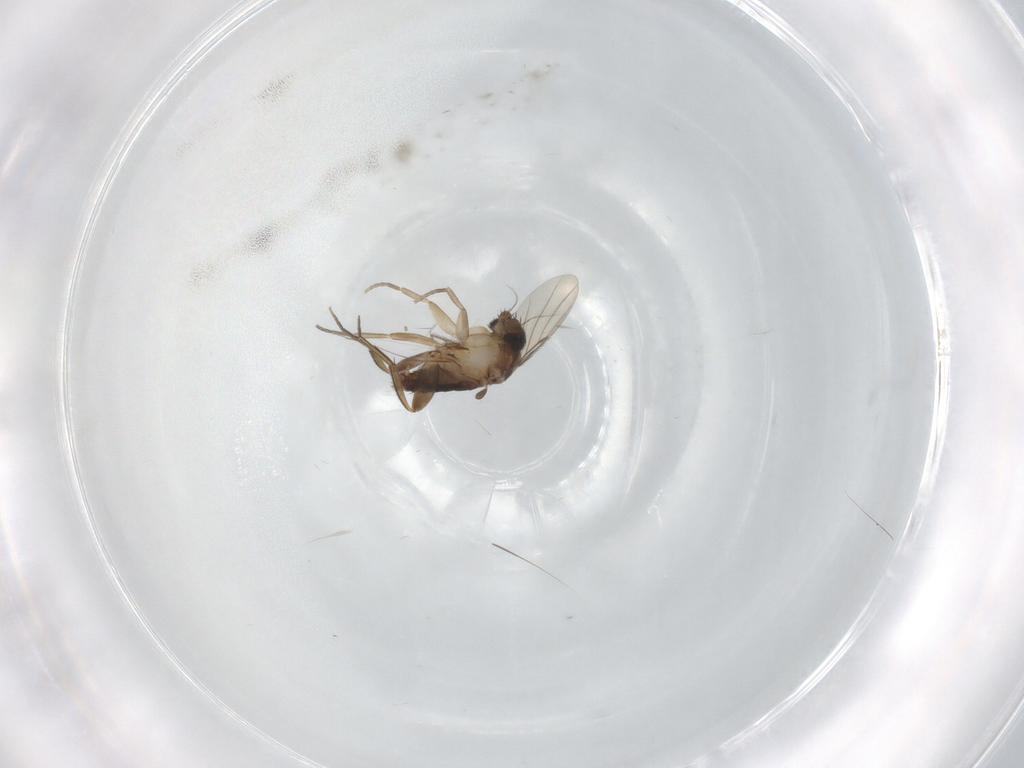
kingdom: Animalia
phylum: Arthropoda
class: Insecta
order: Diptera
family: Phoridae
